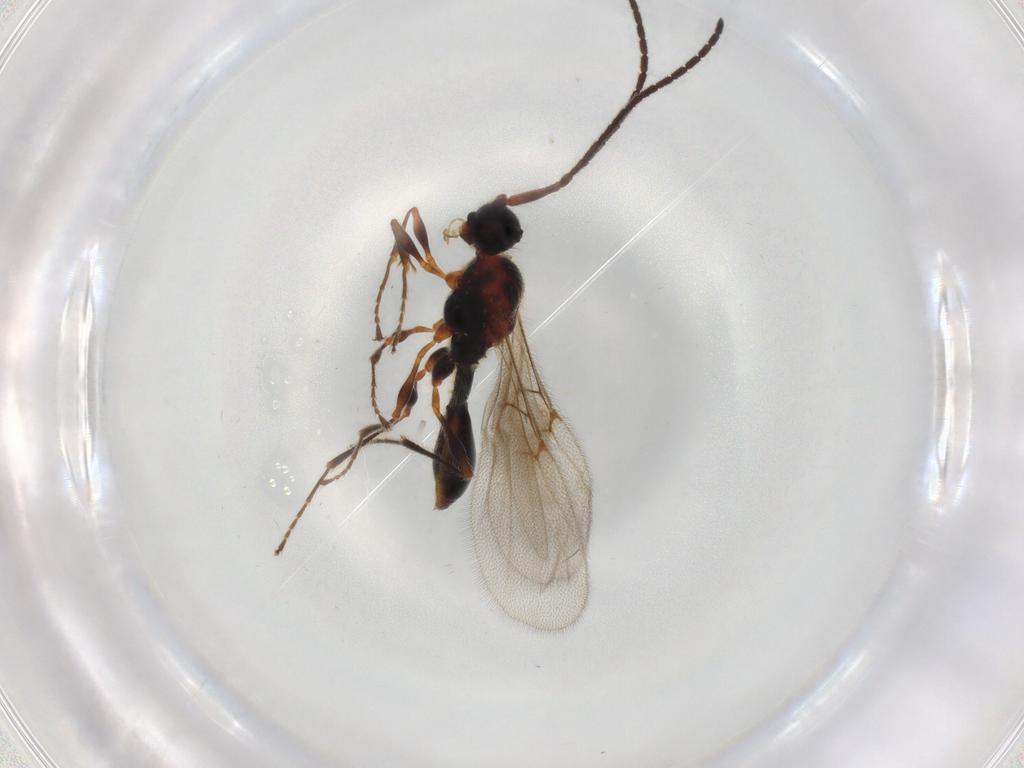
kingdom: Animalia
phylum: Arthropoda
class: Insecta
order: Hymenoptera
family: Diapriidae
